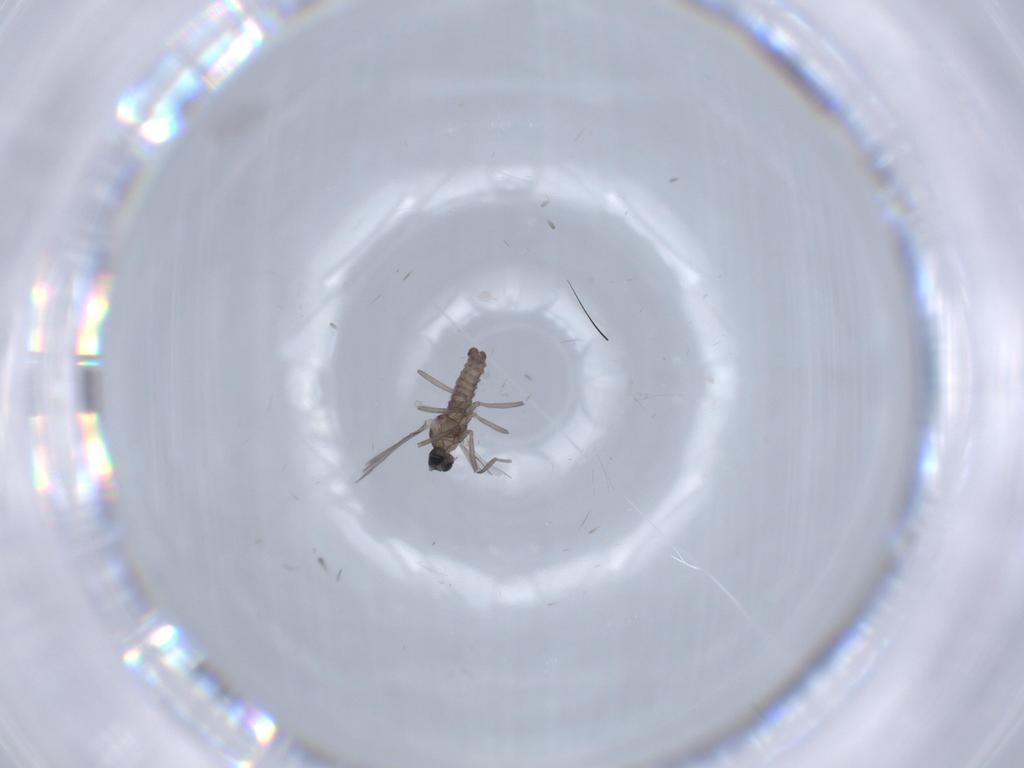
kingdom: Animalia
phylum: Arthropoda
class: Insecta
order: Diptera
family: Cecidomyiidae
